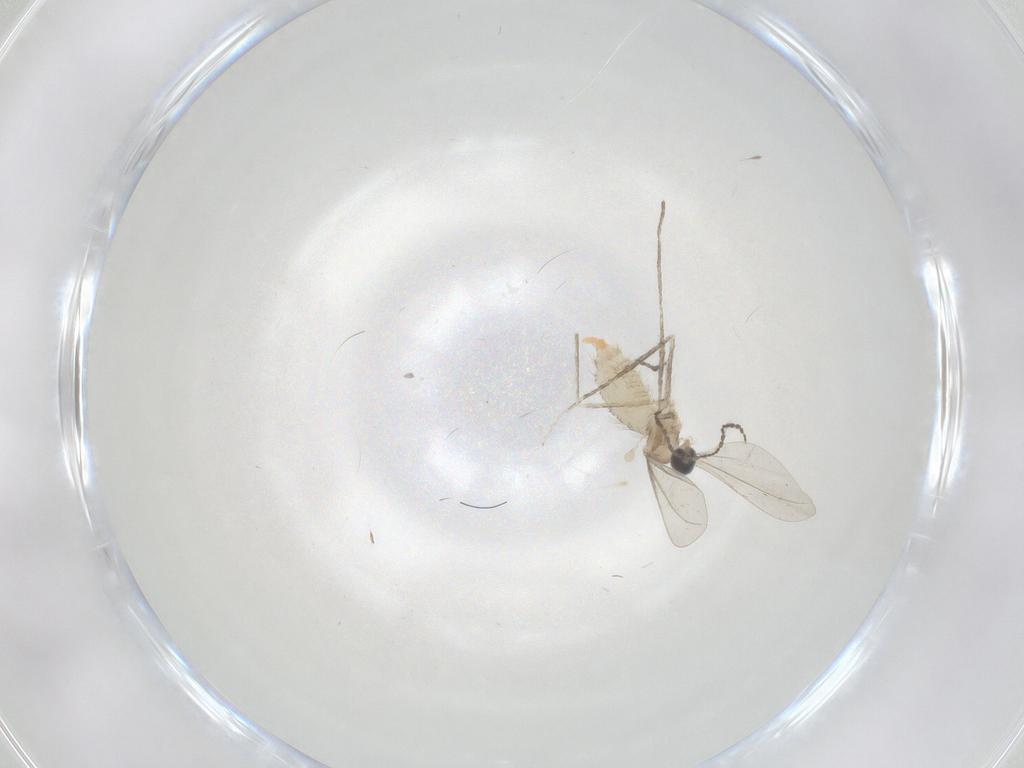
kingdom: Animalia
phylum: Arthropoda
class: Insecta
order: Diptera
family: Cecidomyiidae
